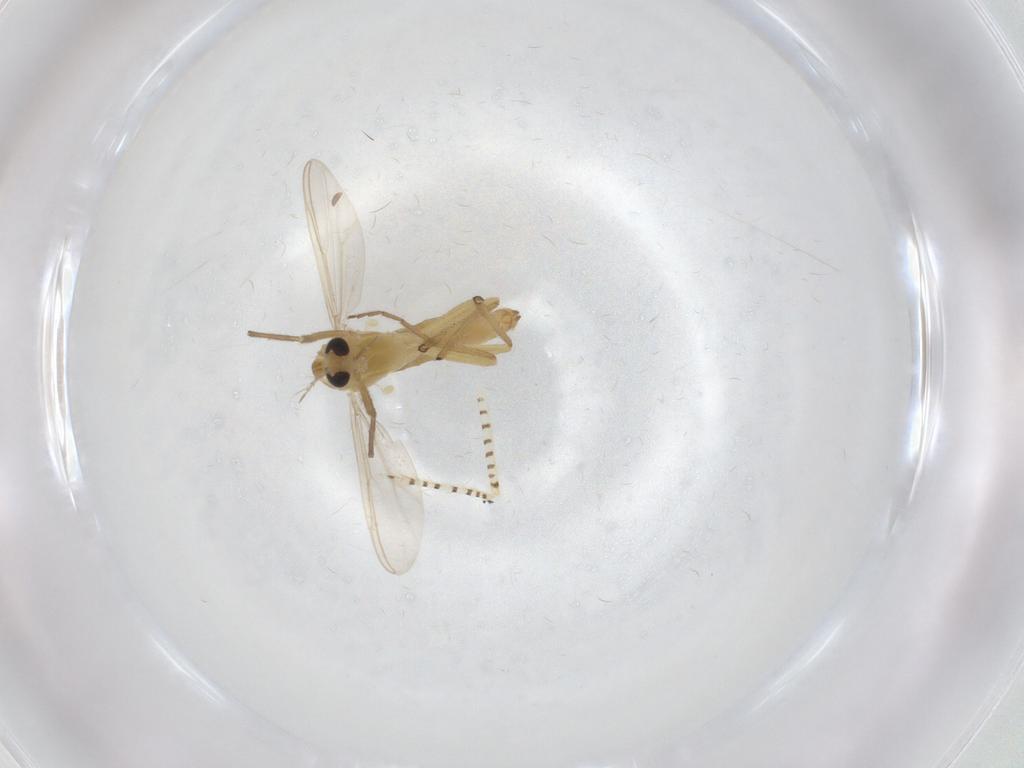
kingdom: Animalia
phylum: Arthropoda
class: Insecta
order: Diptera
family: Chironomidae
